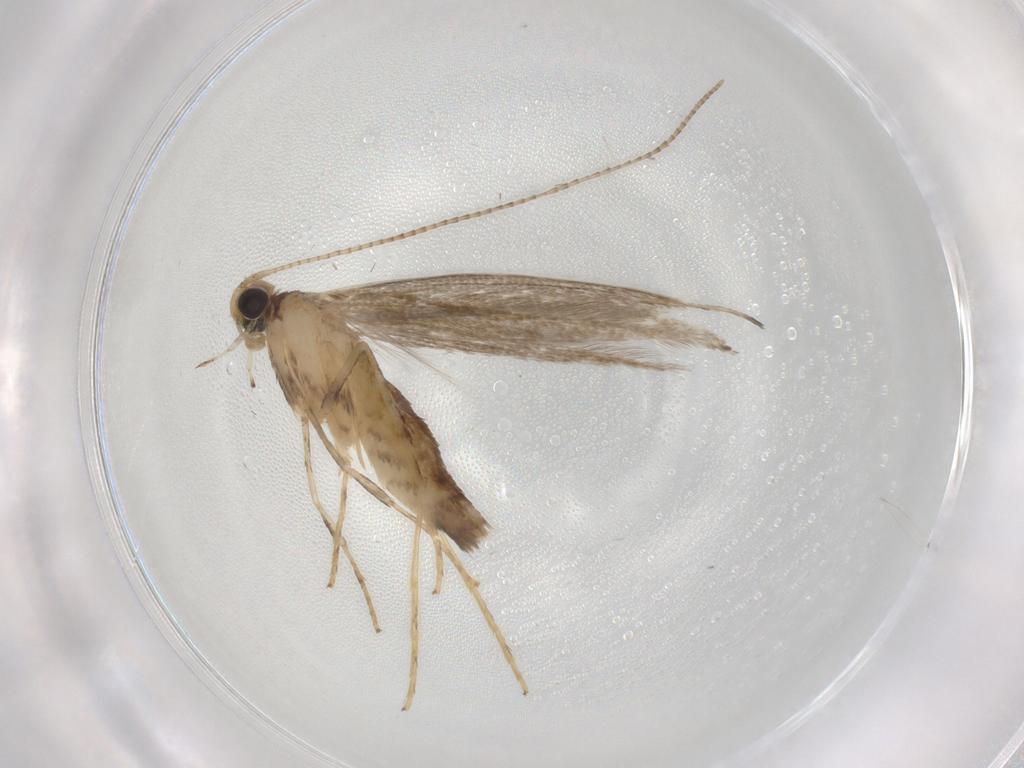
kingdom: Animalia
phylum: Arthropoda
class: Insecta
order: Lepidoptera
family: Gracillariidae
